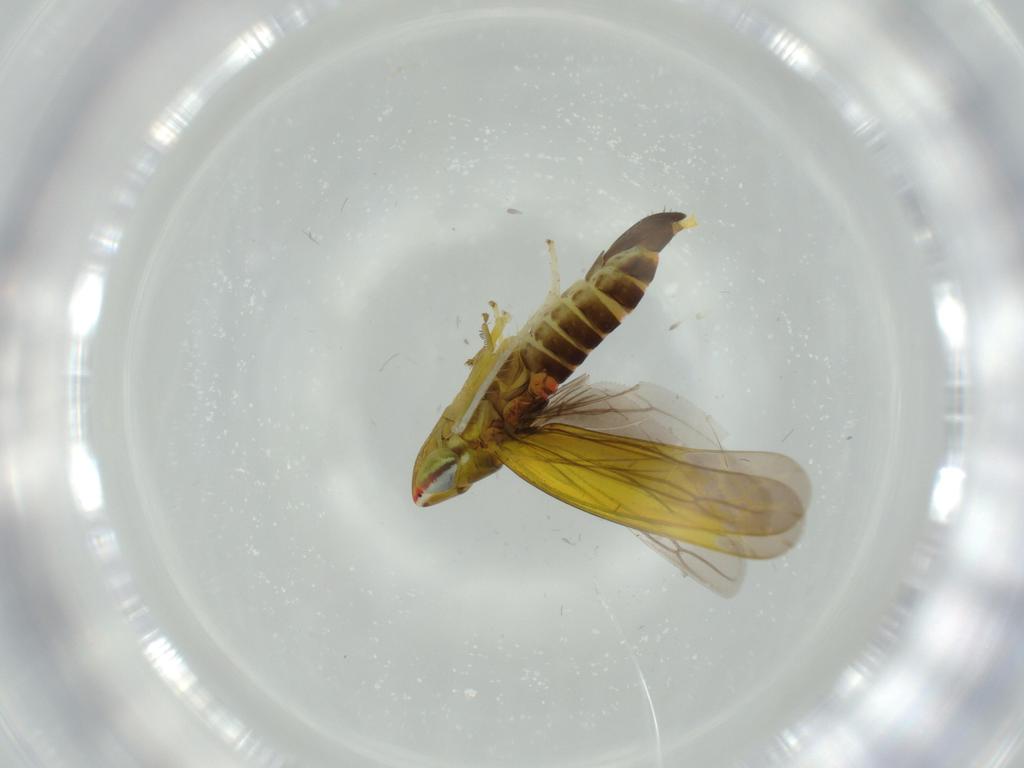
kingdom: Animalia
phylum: Arthropoda
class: Insecta
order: Hemiptera
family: Cicadellidae
